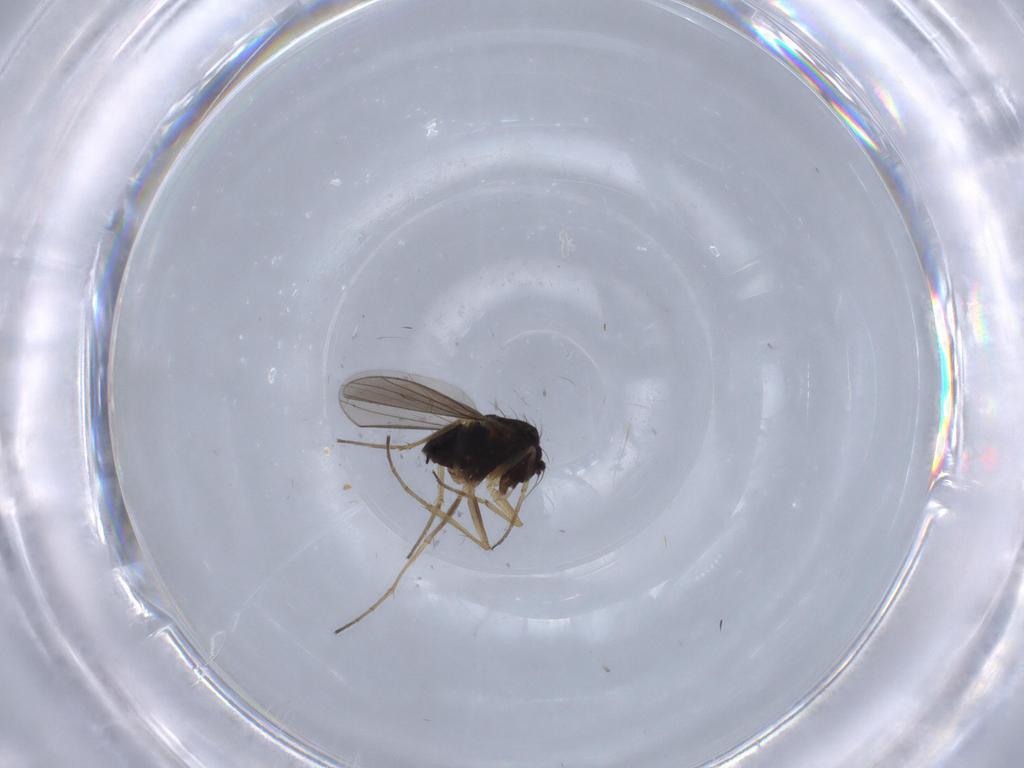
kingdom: Animalia
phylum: Arthropoda
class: Insecta
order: Diptera
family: Dolichopodidae
